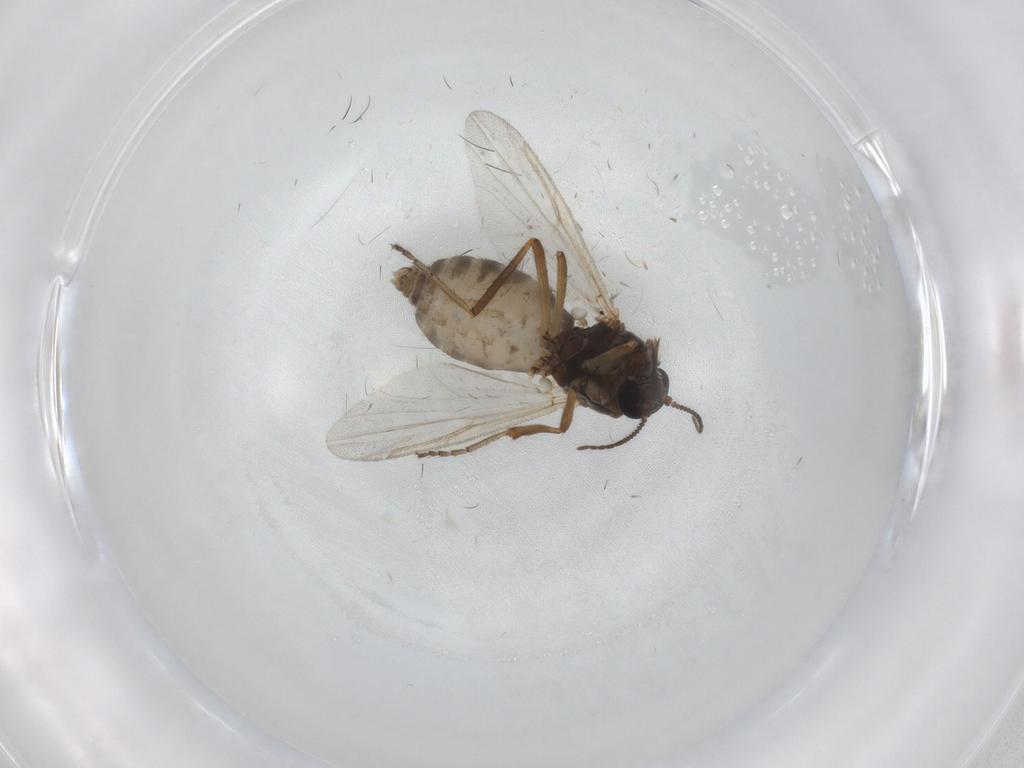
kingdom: Animalia
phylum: Arthropoda
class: Insecta
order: Diptera
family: Ceratopogonidae
